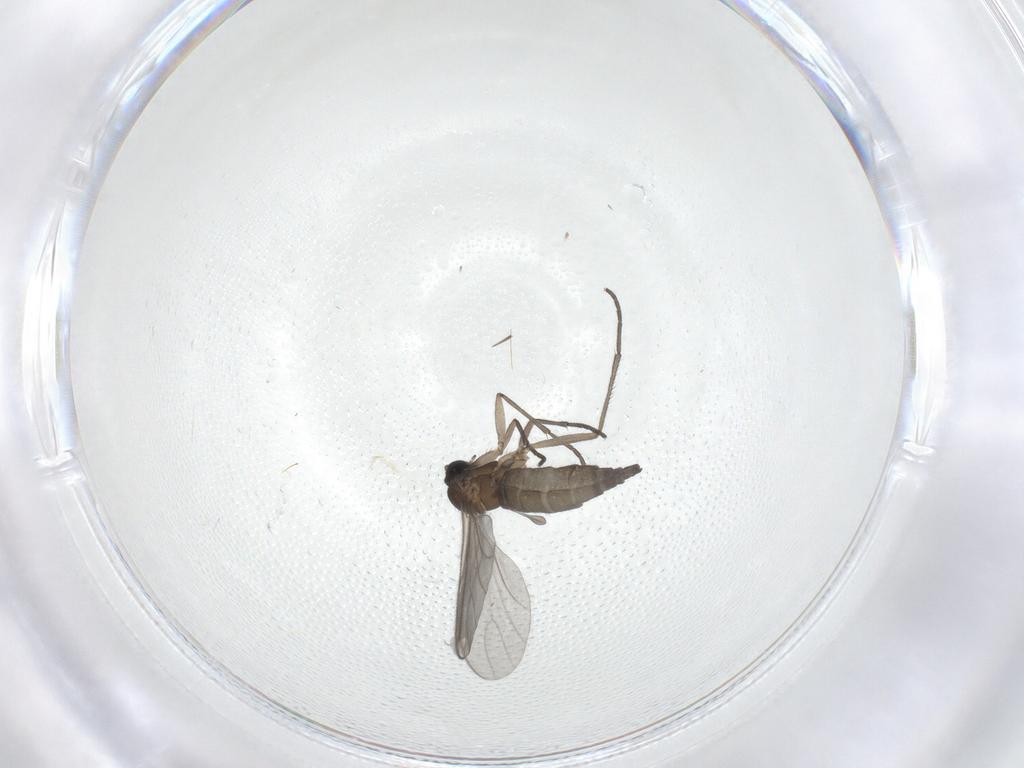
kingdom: Animalia
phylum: Arthropoda
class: Insecta
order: Diptera
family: Sciaridae
